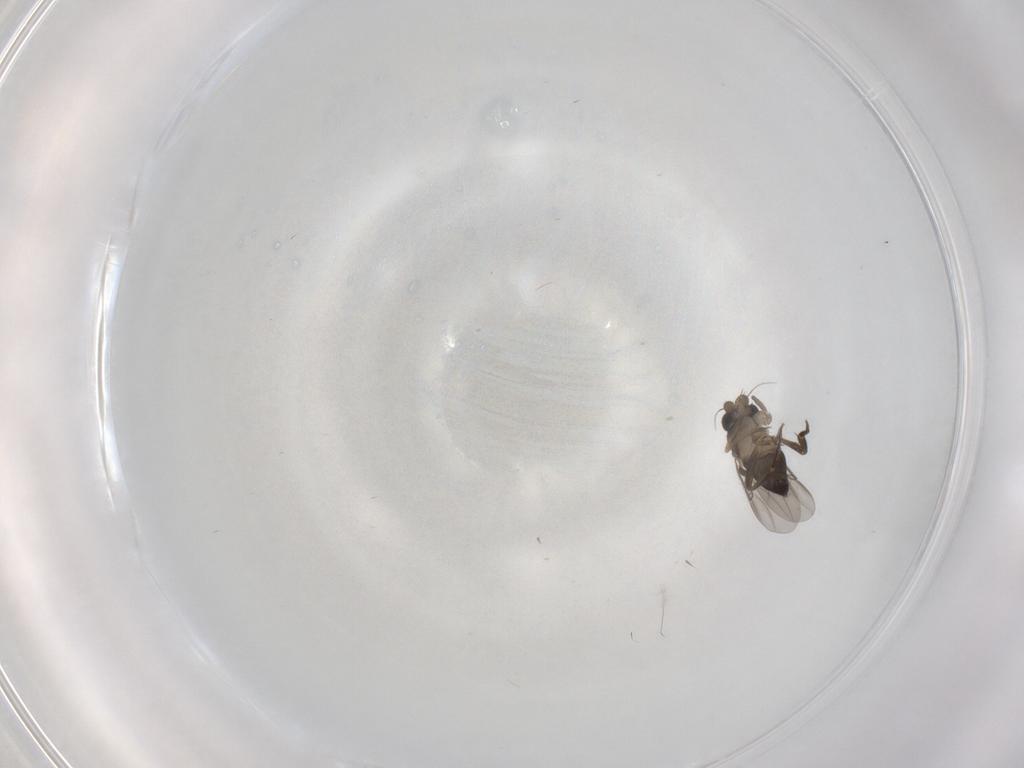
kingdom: Animalia
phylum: Arthropoda
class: Insecta
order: Diptera
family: Phoridae
